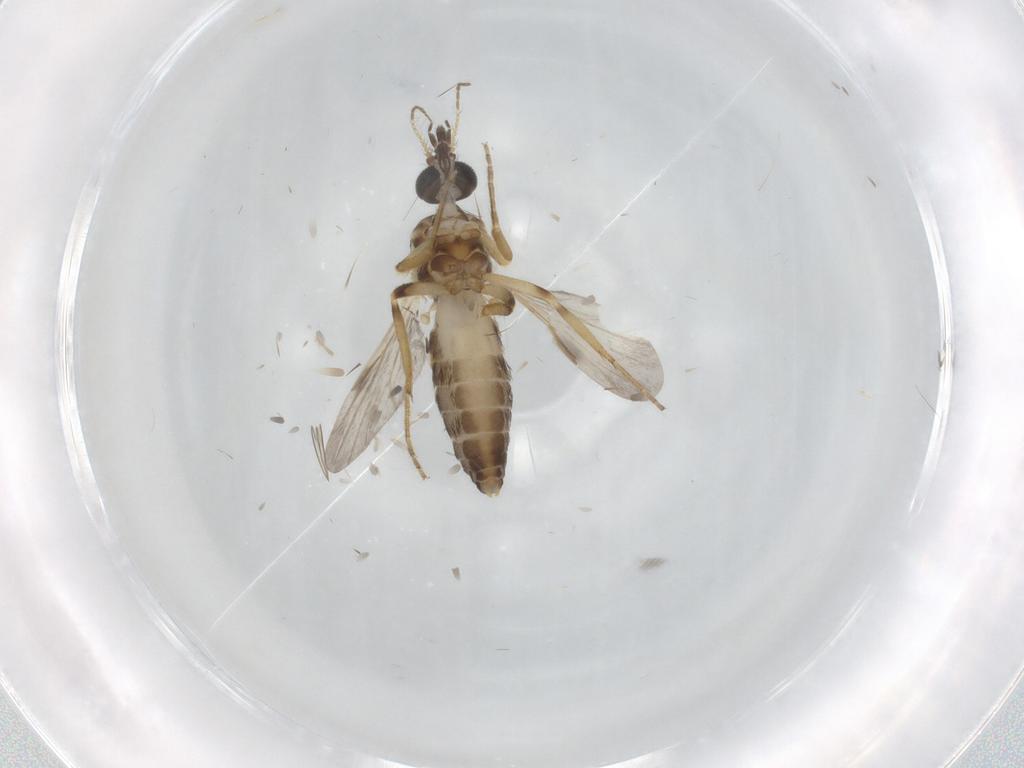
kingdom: Animalia
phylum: Arthropoda
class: Insecta
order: Diptera
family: Ceratopogonidae
